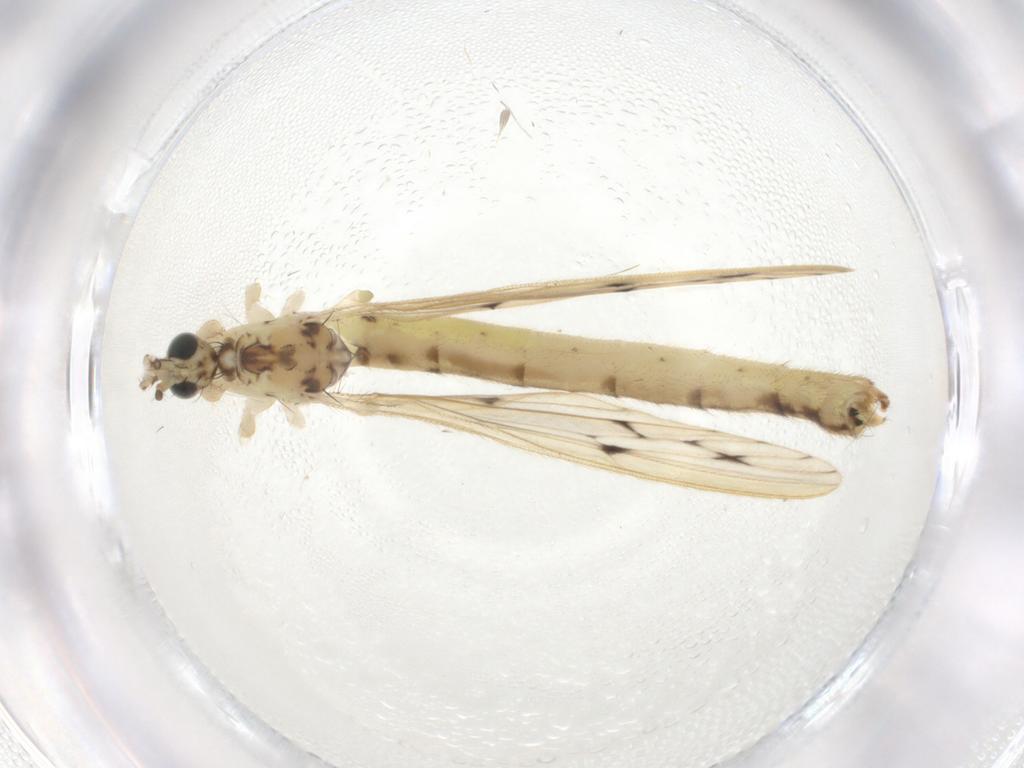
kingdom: Animalia
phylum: Arthropoda
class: Insecta
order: Diptera
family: Limoniidae
